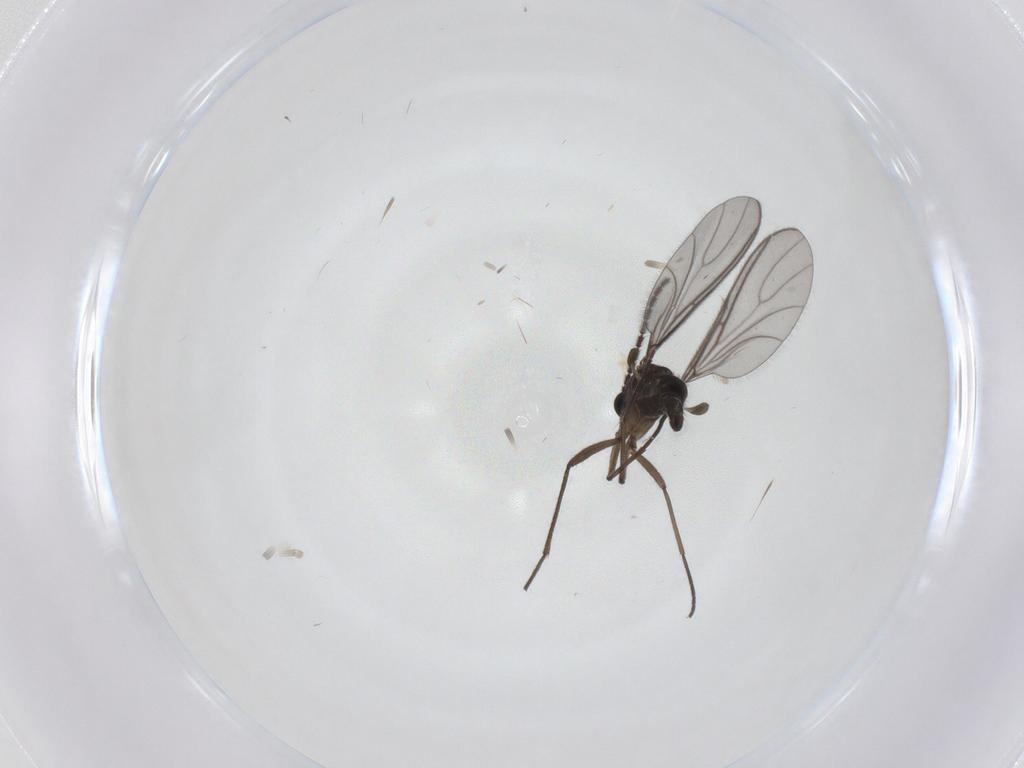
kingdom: Animalia
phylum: Arthropoda
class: Insecta
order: Diptera
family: Sciaridae
